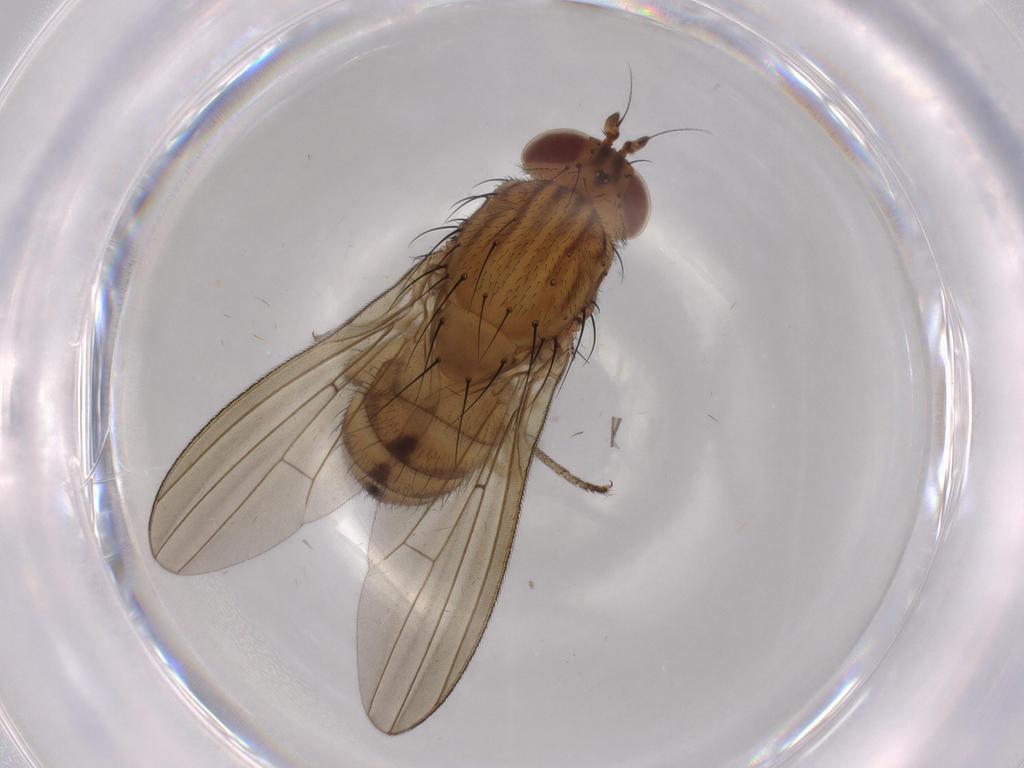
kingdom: Animalia
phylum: Arthropoda
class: Insecta
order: Diptera
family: Cecidomyiidae
